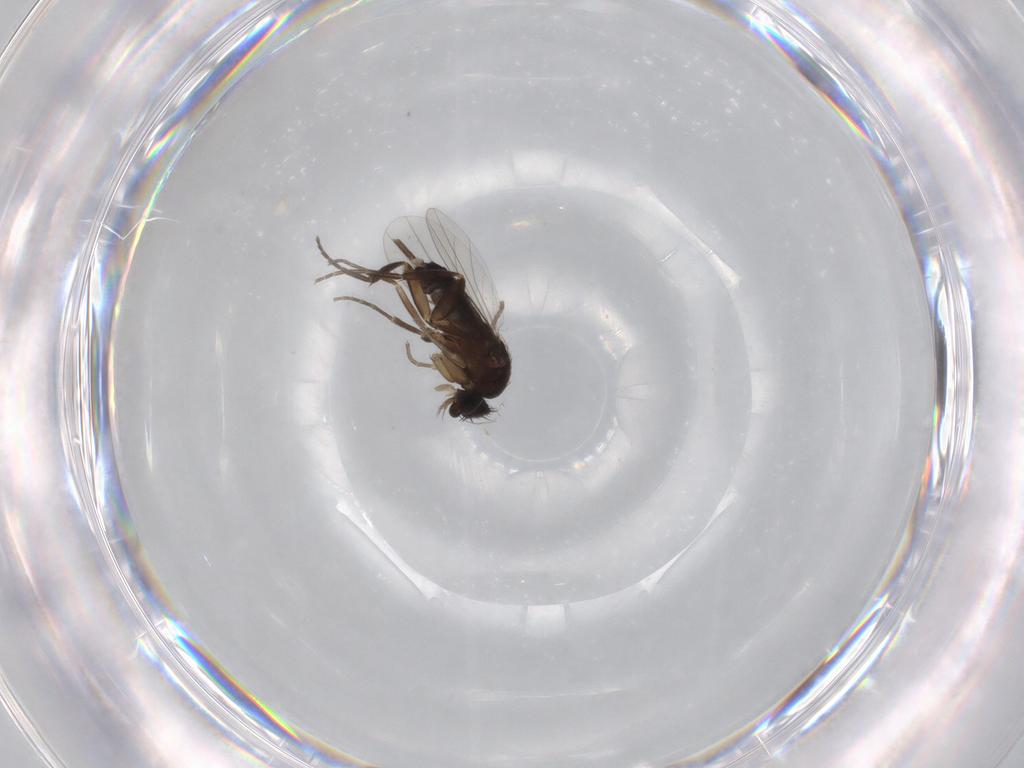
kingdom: Animalia
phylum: Arthropoda
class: Insecta
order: Diptera
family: Phoridae
